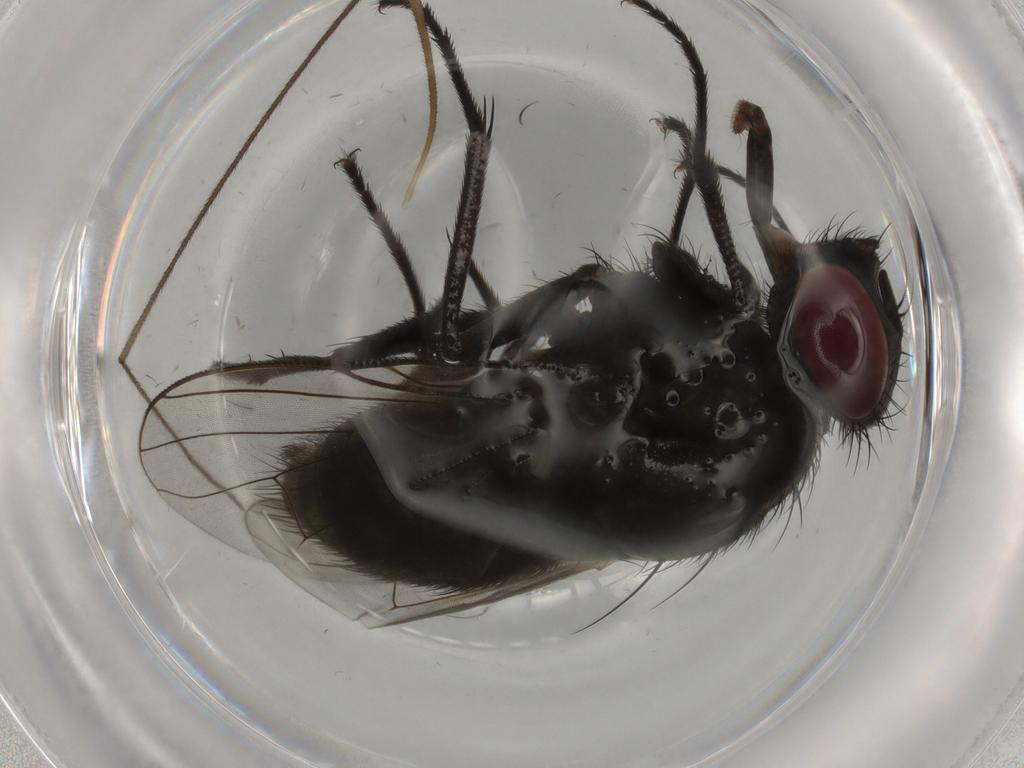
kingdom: Animalia
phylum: Arthropoda
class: Insecta
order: Diptera
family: Muscidae
